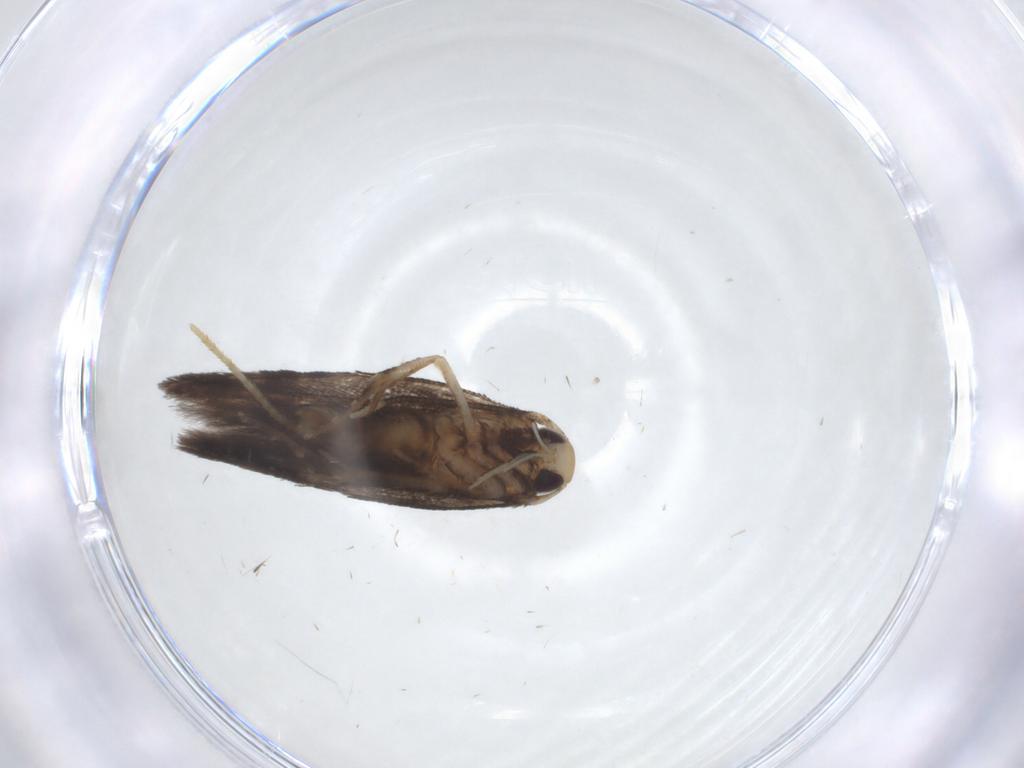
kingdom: Animalia
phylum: Arthropoda
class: Insecta
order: Lepidoptera
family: Cosmopterigidae
